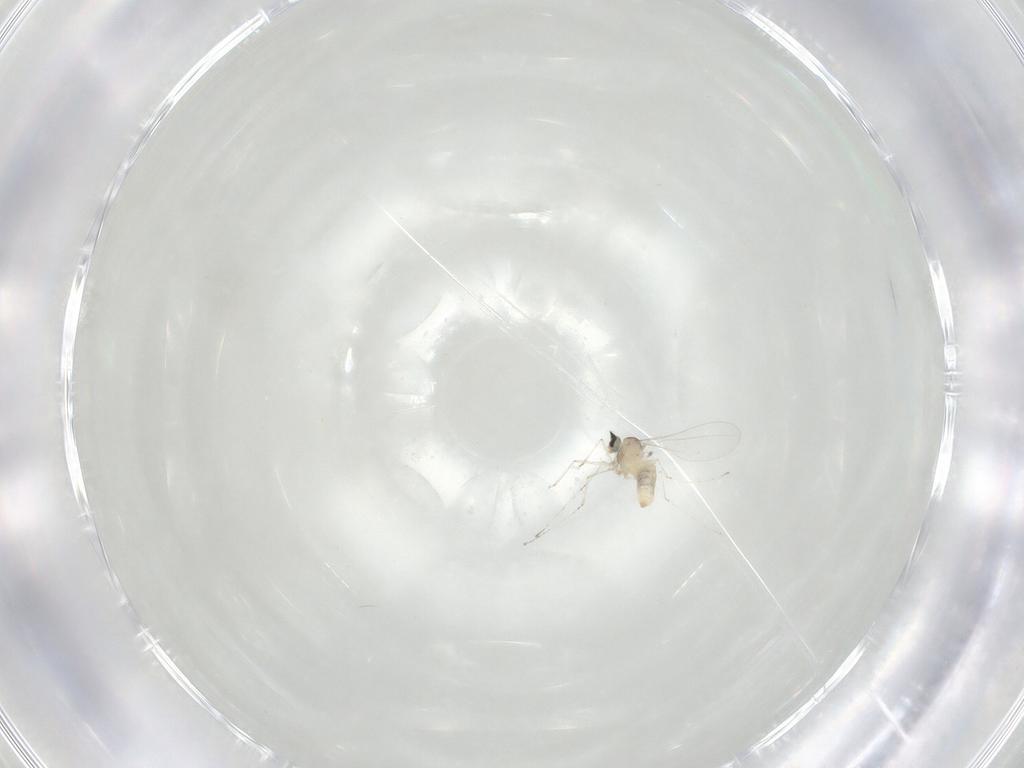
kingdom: Animalia
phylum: Arthropoda
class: Insecta
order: Diptera
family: Cecidomyiidae
